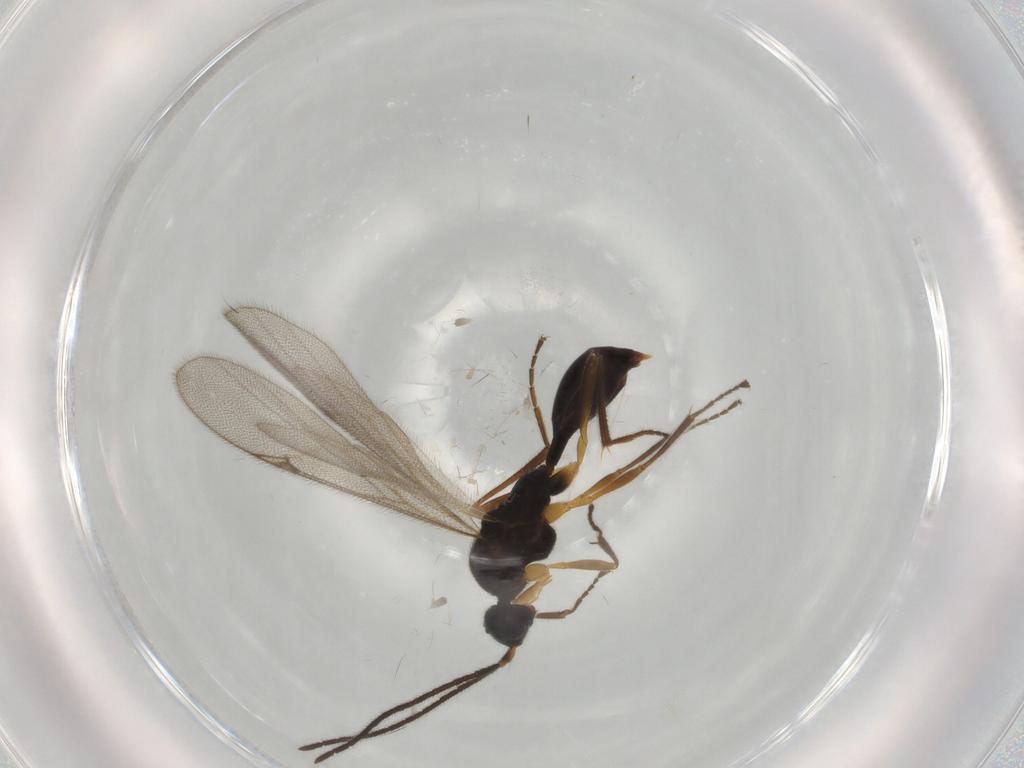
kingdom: Animalia
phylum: Arthropoda
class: Insecta
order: Hymenoptera
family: Proctotrupidae
